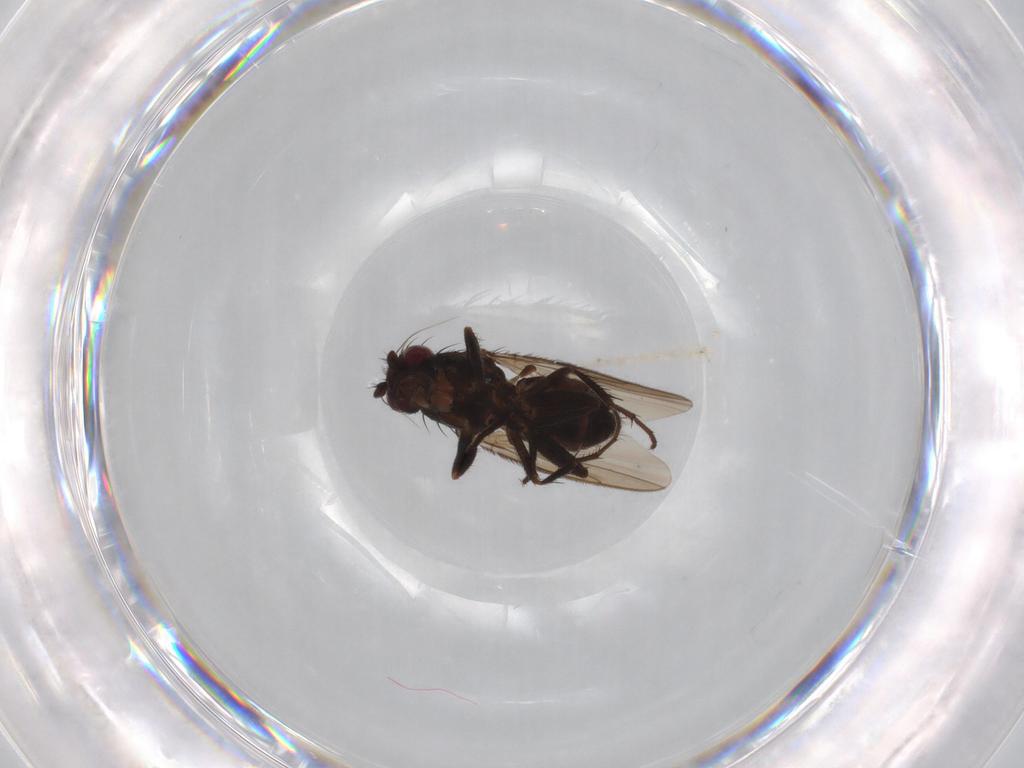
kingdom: Animalia
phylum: Arthropoda
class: Insecta
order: Diptera
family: Sphaeroceridae
